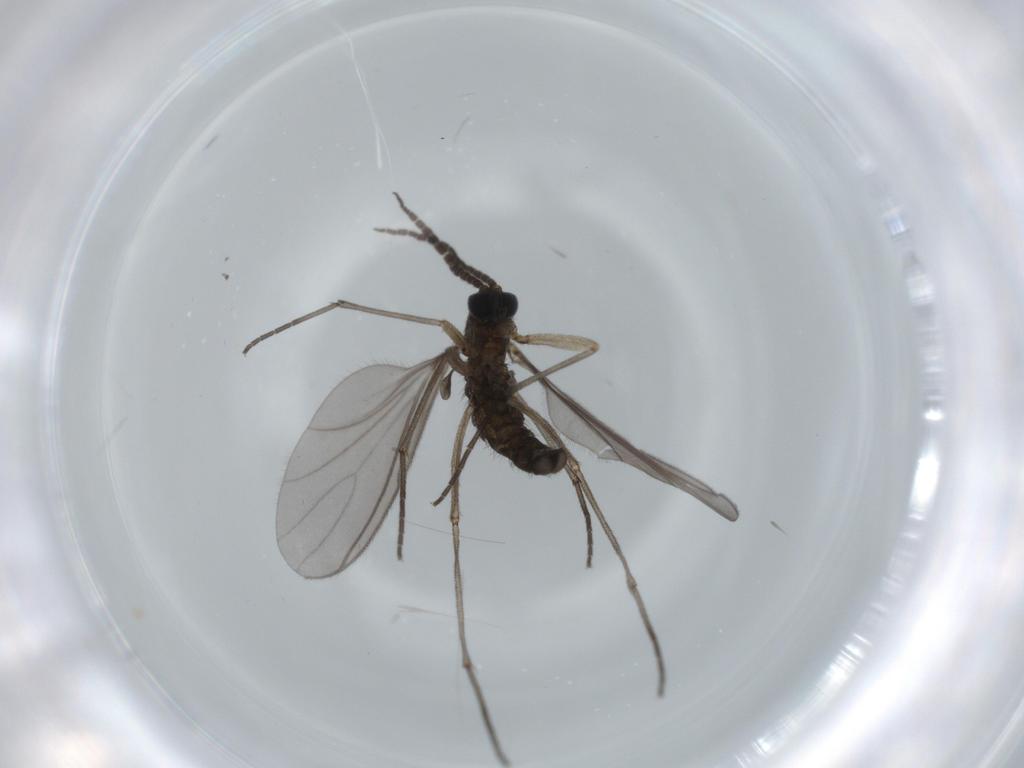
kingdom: Animalia
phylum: Arthropoda
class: Insecta
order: Diptera
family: Sciaridae
